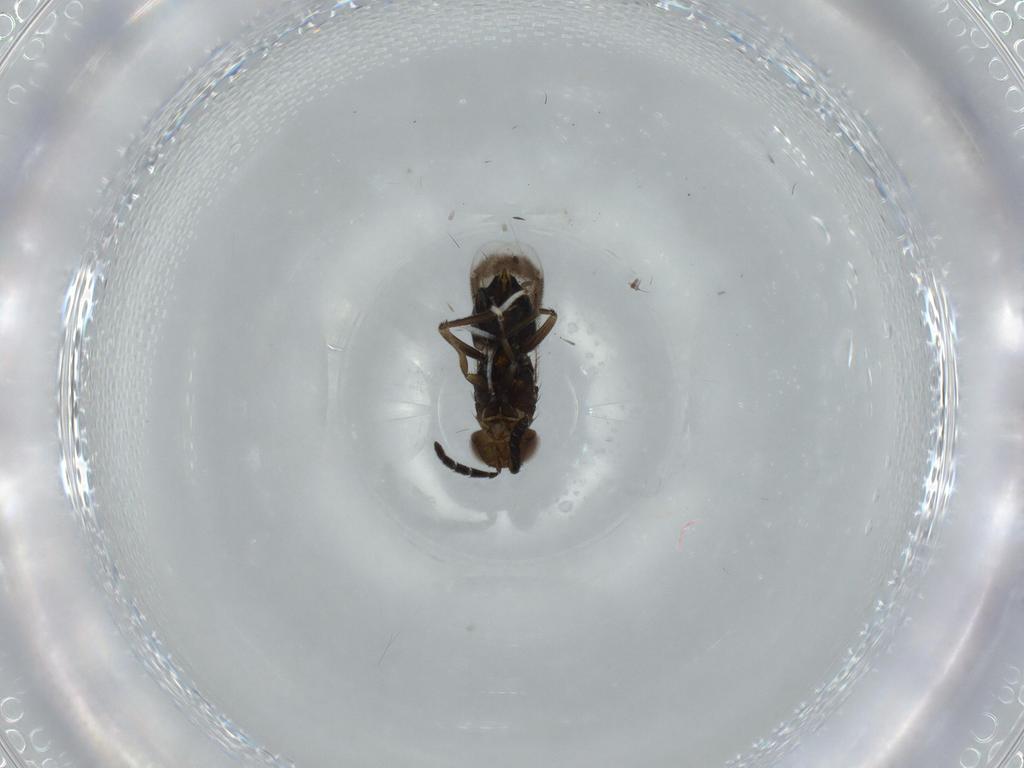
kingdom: Animalia
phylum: Arthropoda
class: Insecta
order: Hymenoptera
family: Aphelinidae
